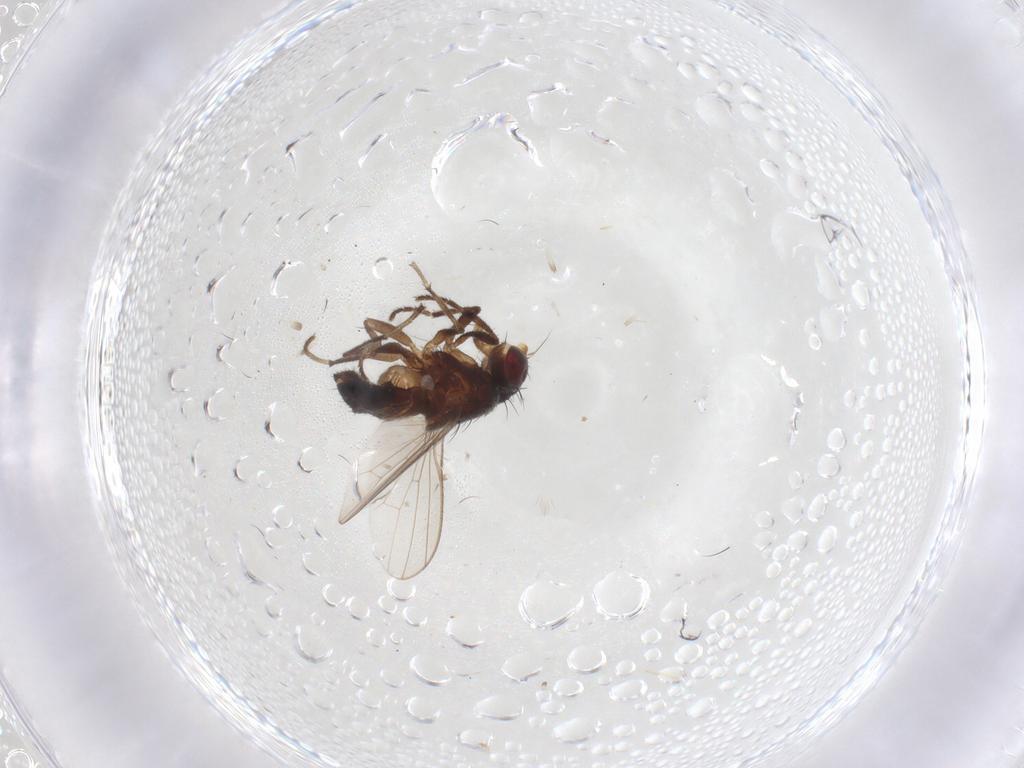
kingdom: Animalia
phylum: Arthropoda
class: Insecta
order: Diptera
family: Heleomyzidae
